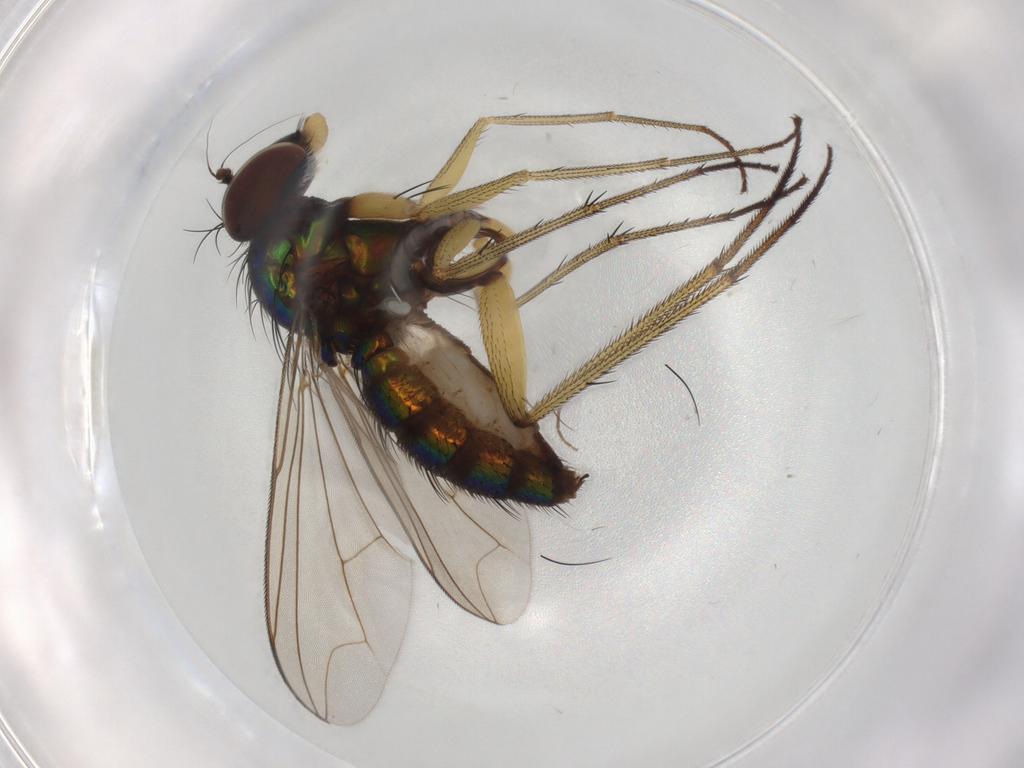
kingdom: Animalia
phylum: Arthropoda
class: Insecta
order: Diptera
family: Dolichopodidae
